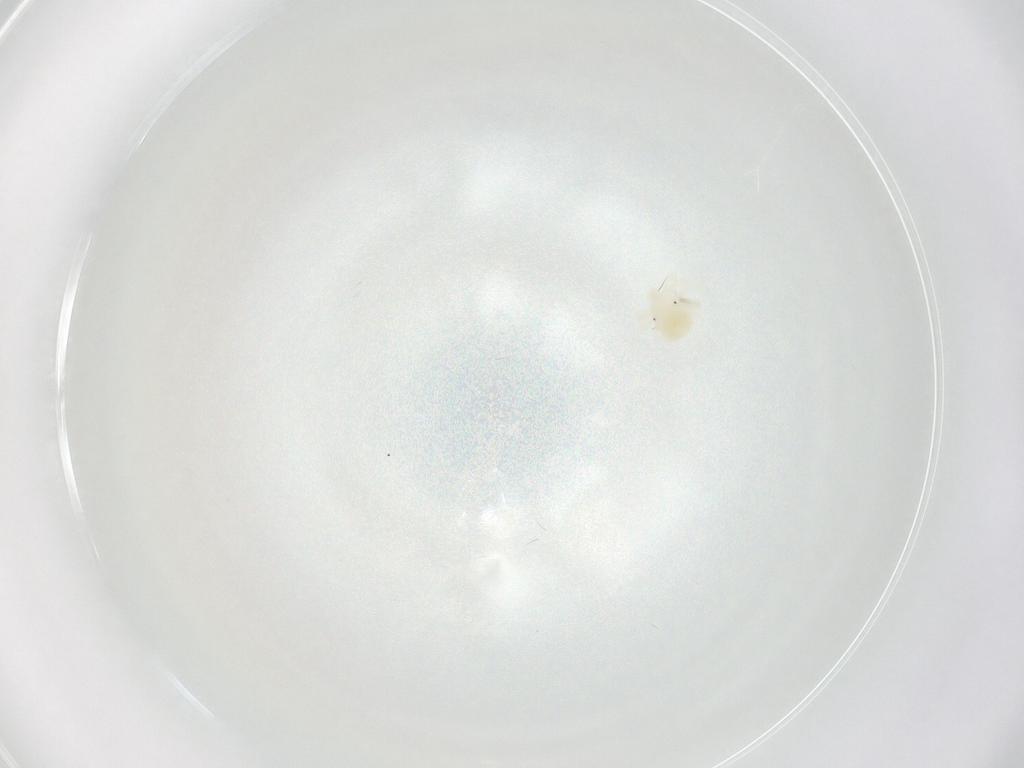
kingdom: Animalia
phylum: Arthropoda
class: Arachnida
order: Trombidiformes
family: Anystidae
